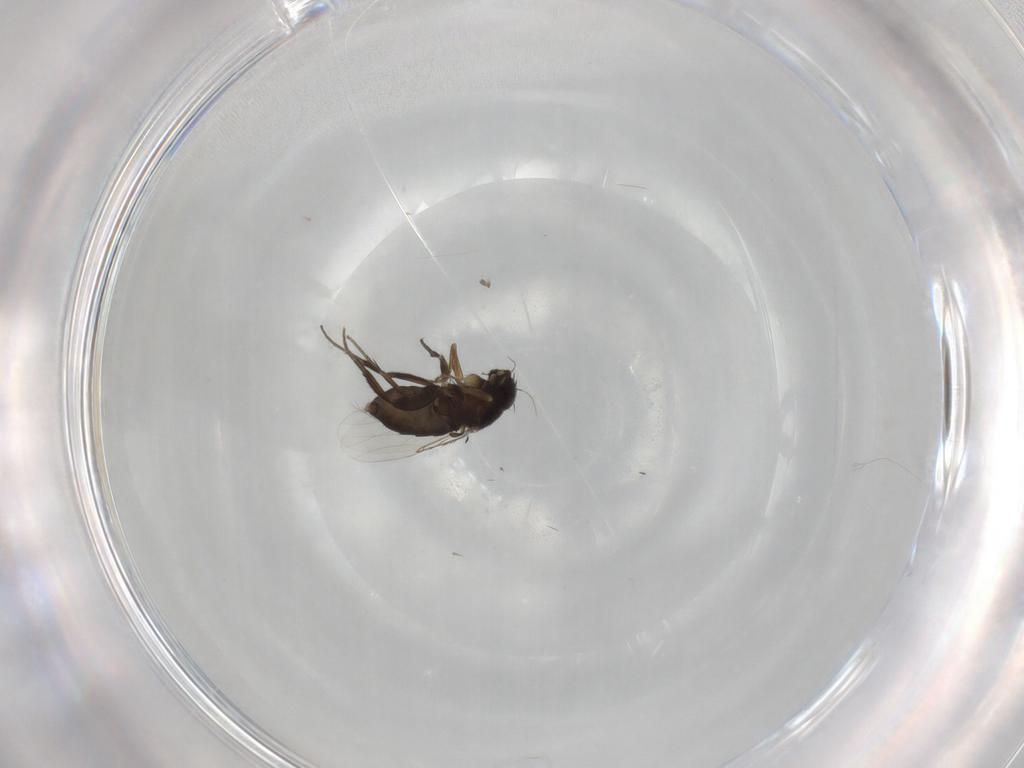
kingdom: Animalia
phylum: Arthropoda
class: Insecta
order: Diptera
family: Phoridae
